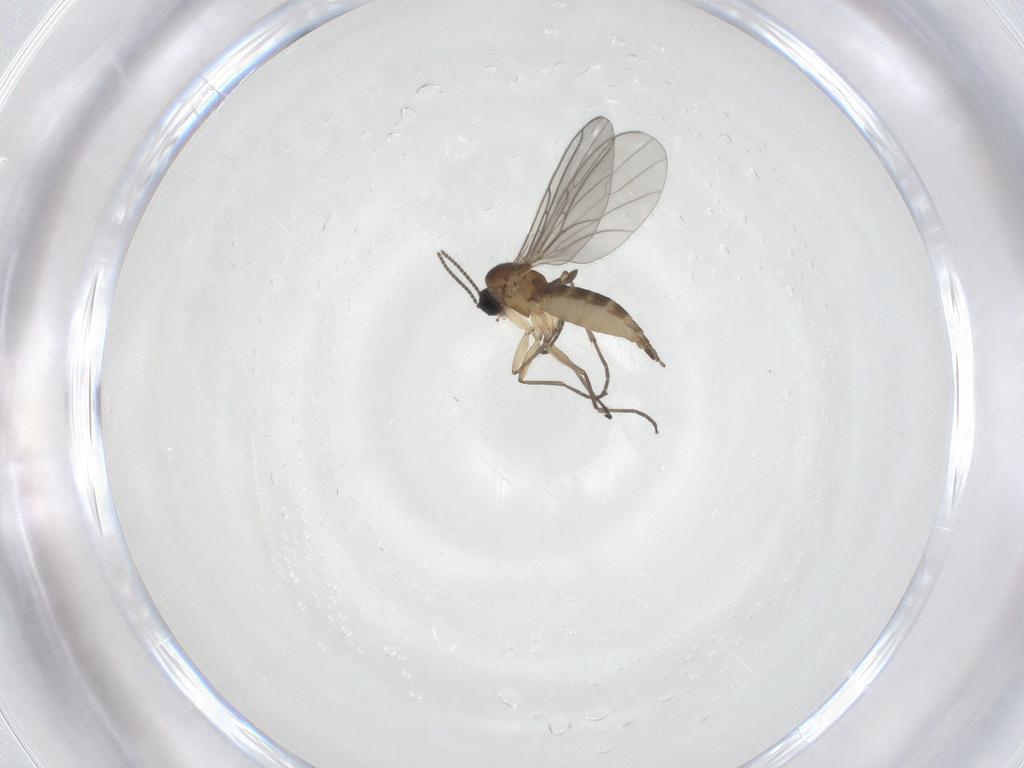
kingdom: Animalia
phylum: Arthropoda
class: Insecta
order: Diptera
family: Sciaridae
